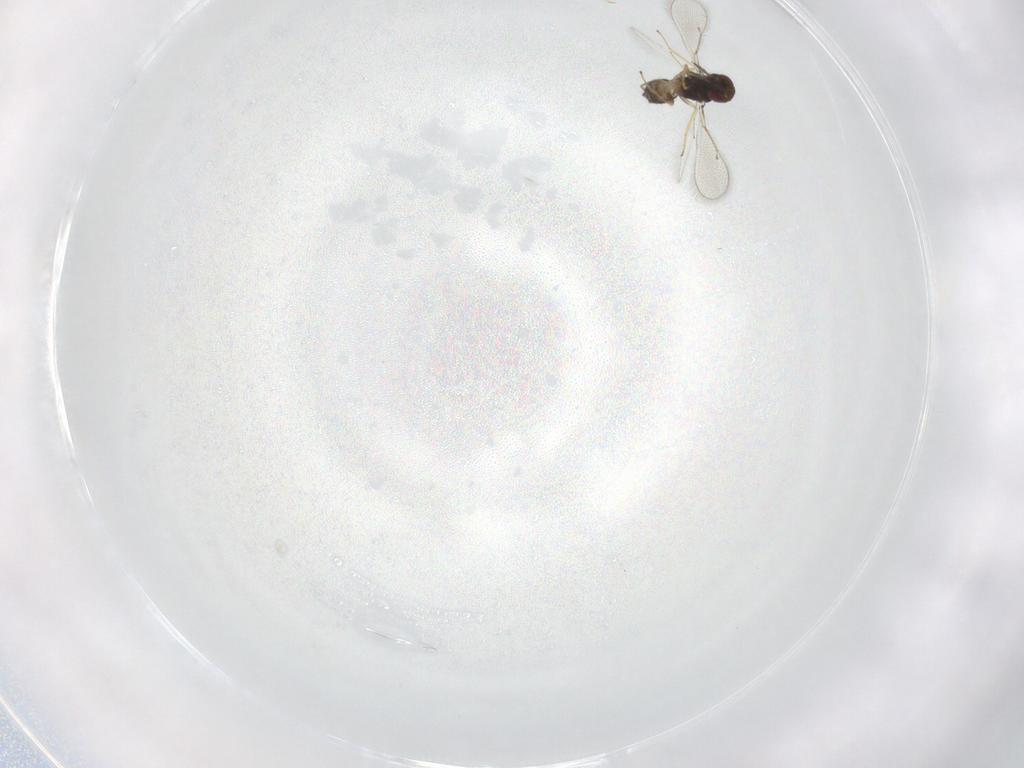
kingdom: Animalia
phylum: Arthropoda
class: Insecta
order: Hymenoptera
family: Eulophidae
